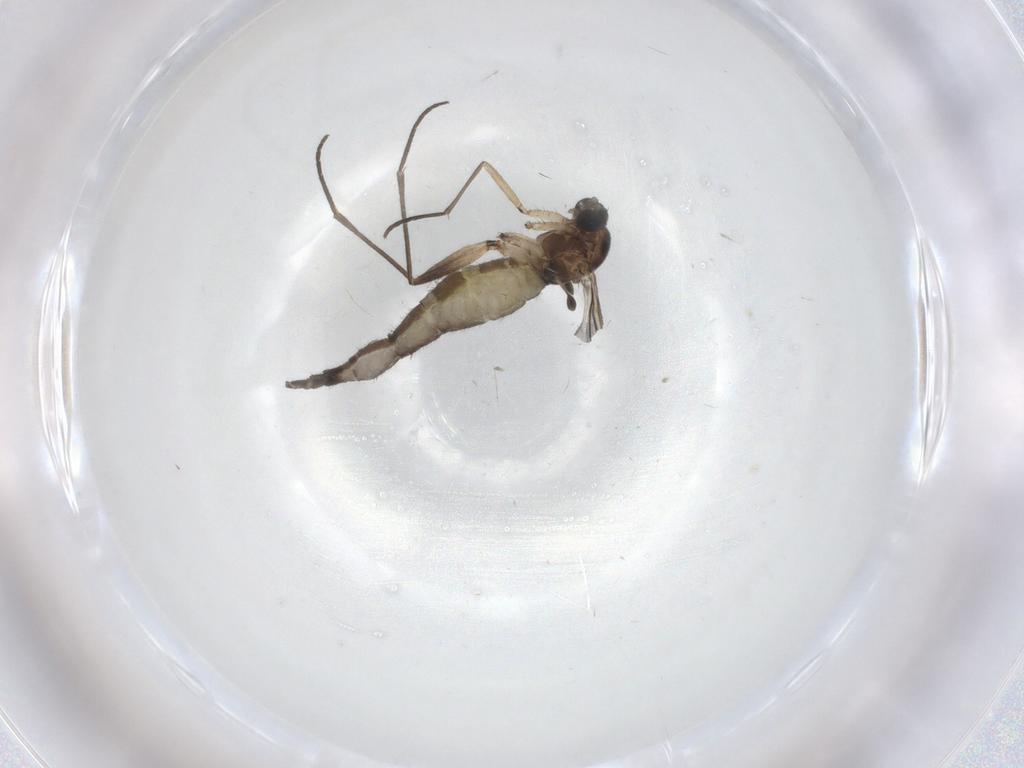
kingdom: Animalia
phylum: Arthropoda
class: Insecta
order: Diptera
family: Sciaridae
